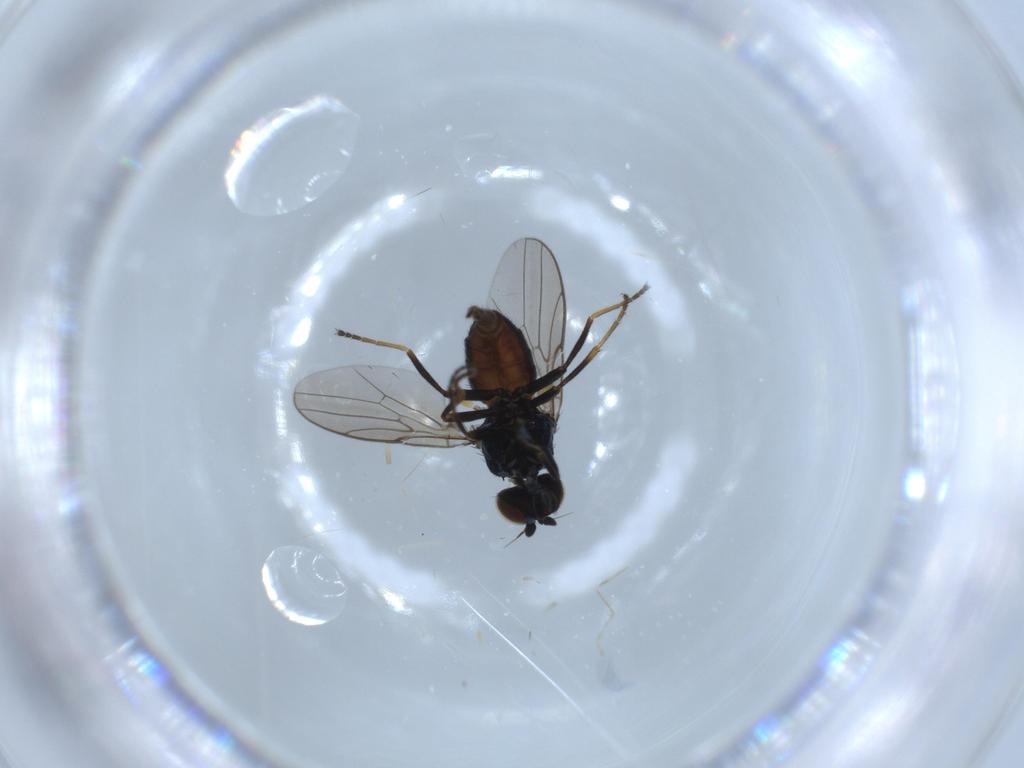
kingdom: Animalia
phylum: Arthropoda
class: Insecta
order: Diptera
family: Chloropidae
